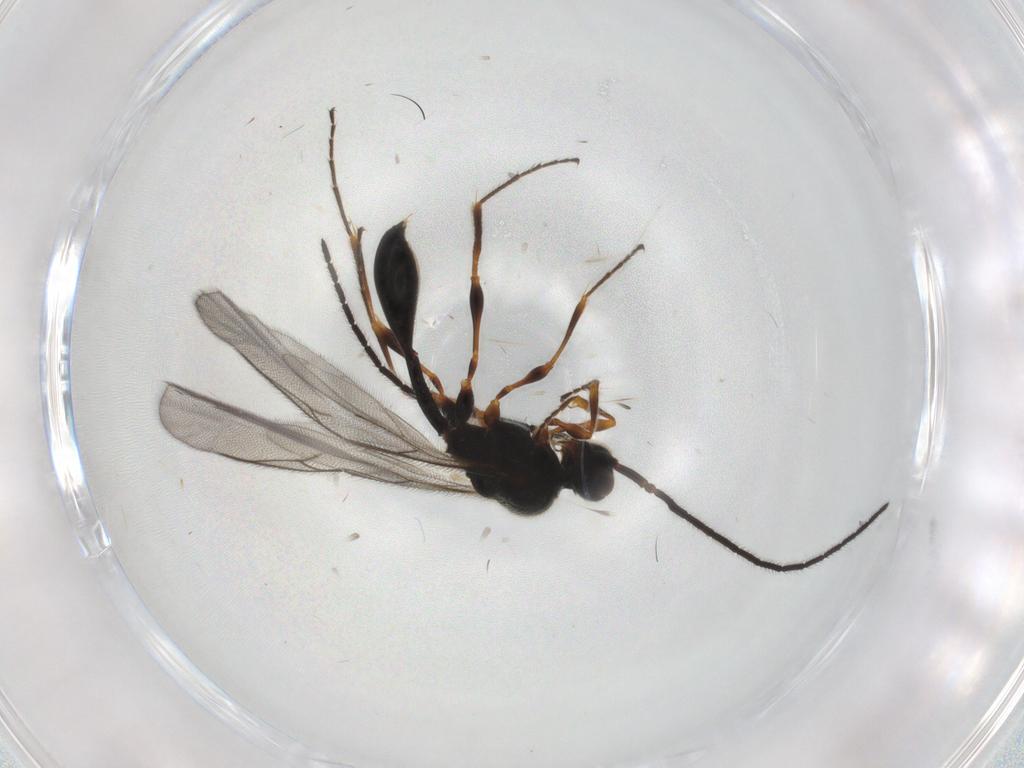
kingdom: Animalia
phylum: Arthropoda
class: Insecta
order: Hymenoptera
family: Diapriidae
